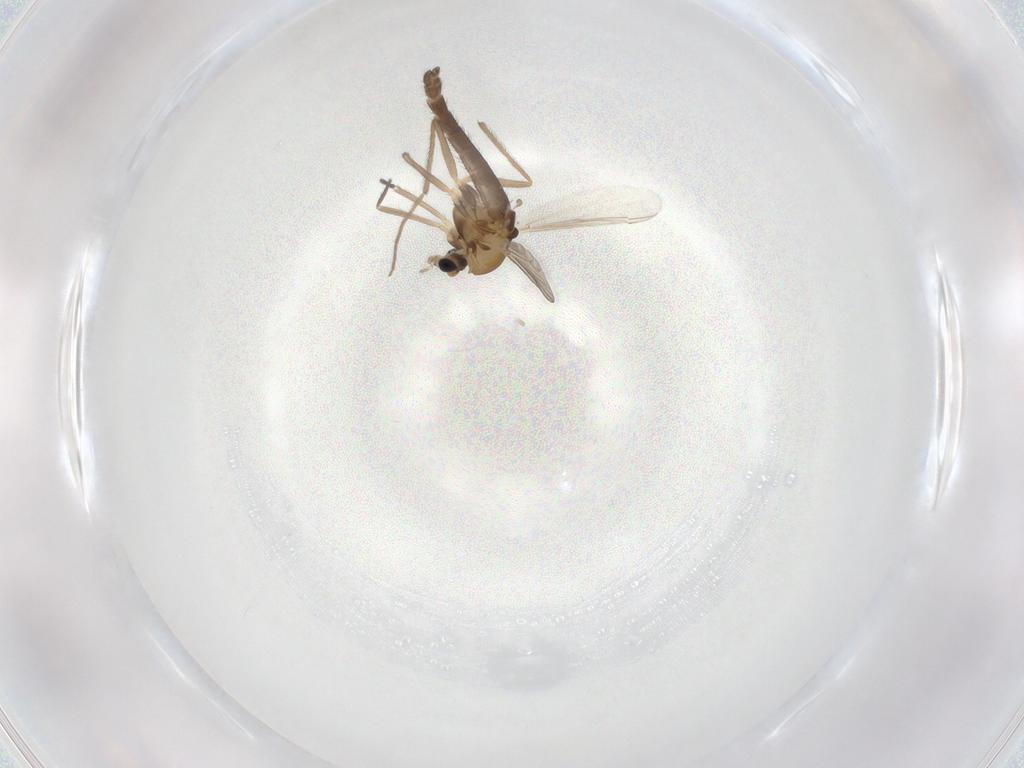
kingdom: Animalia
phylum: Arthropoda
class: Insecta
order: Diptera
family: Chironomidae
